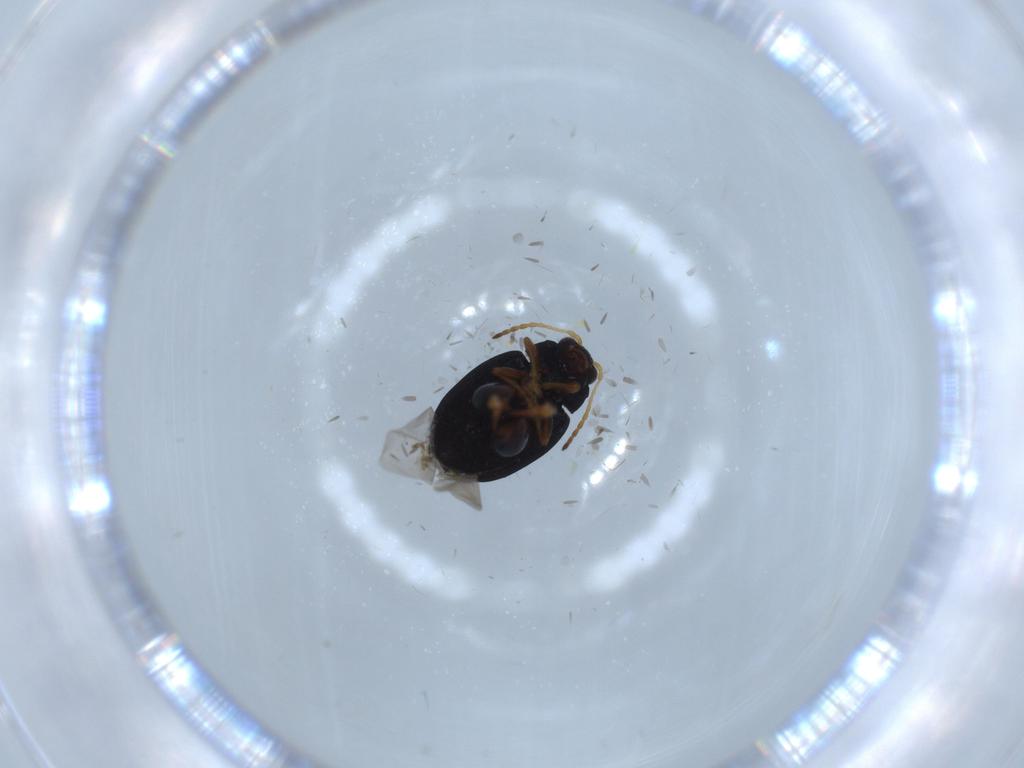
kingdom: Animalia
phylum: Arthropoda
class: Insecta
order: Coleoptera
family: Chrysomelidae
